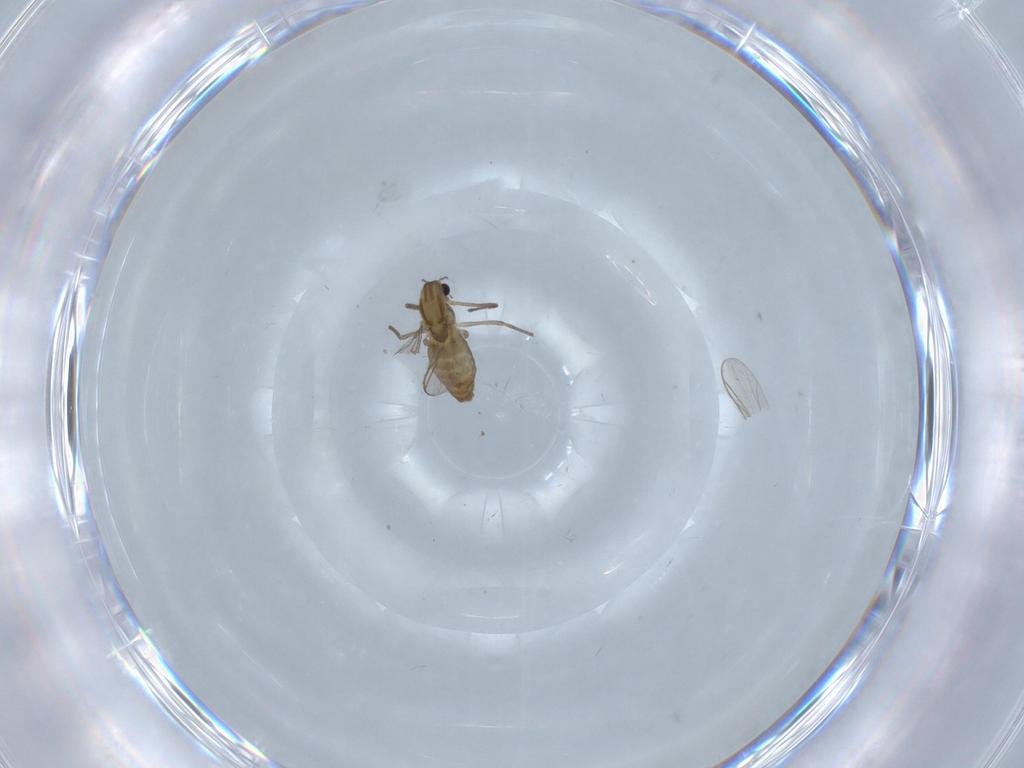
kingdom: Animalia
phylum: Arthropoda
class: Insecta
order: Diptera
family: Chironomidae
